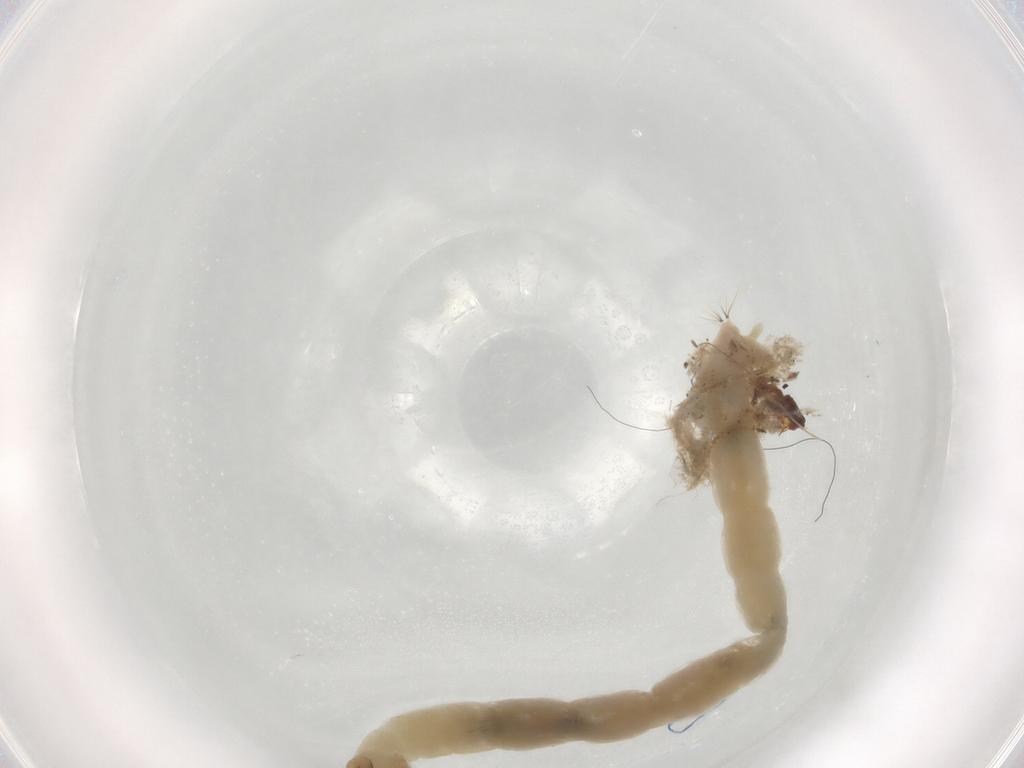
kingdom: Animalia
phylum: Arthropoda
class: Insecta
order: Diptera
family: Chironomidae
